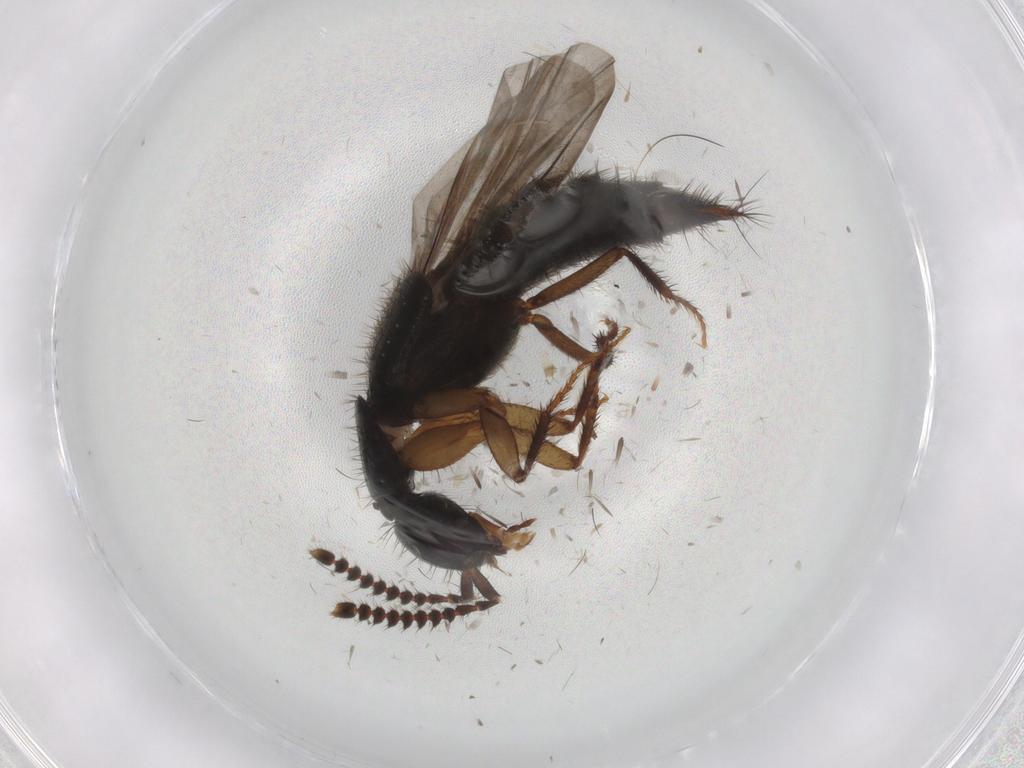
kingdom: Animalia
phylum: Arthropoda
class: Insecta
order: Coleoptera
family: Staphylinidae
